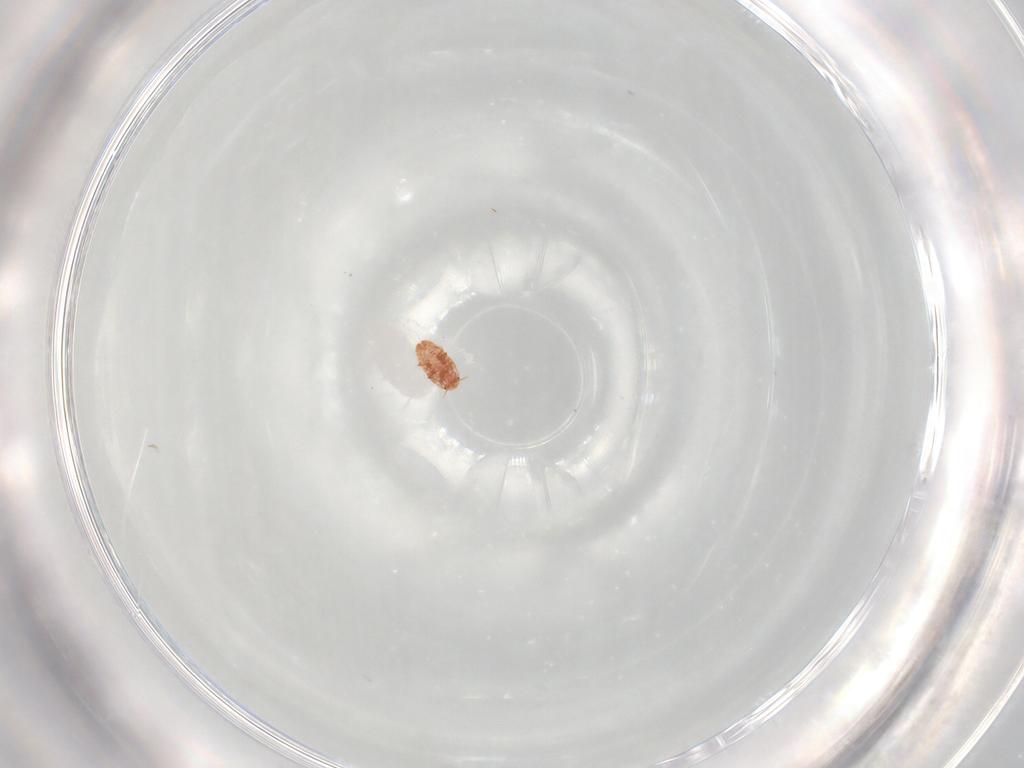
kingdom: Animalia
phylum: Arthropoda
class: Insecta
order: Hemiptera
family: Coccidae
